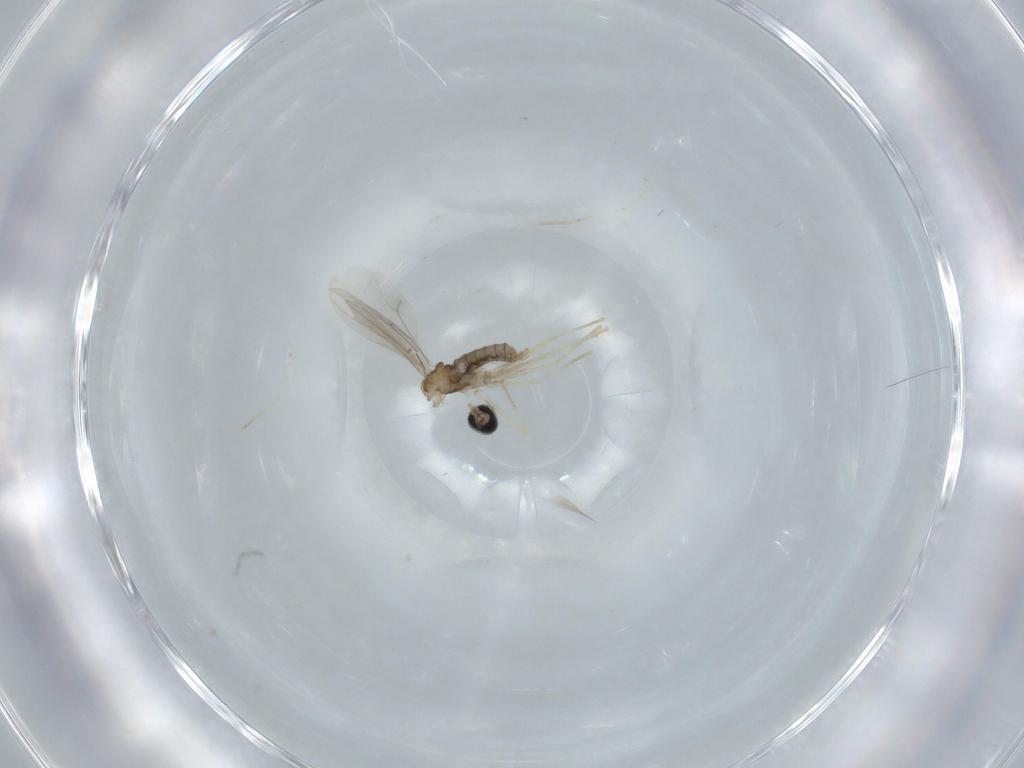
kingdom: Animalia
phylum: Arthropoda
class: Insecta
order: Diptera
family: Cecidomyiidae
